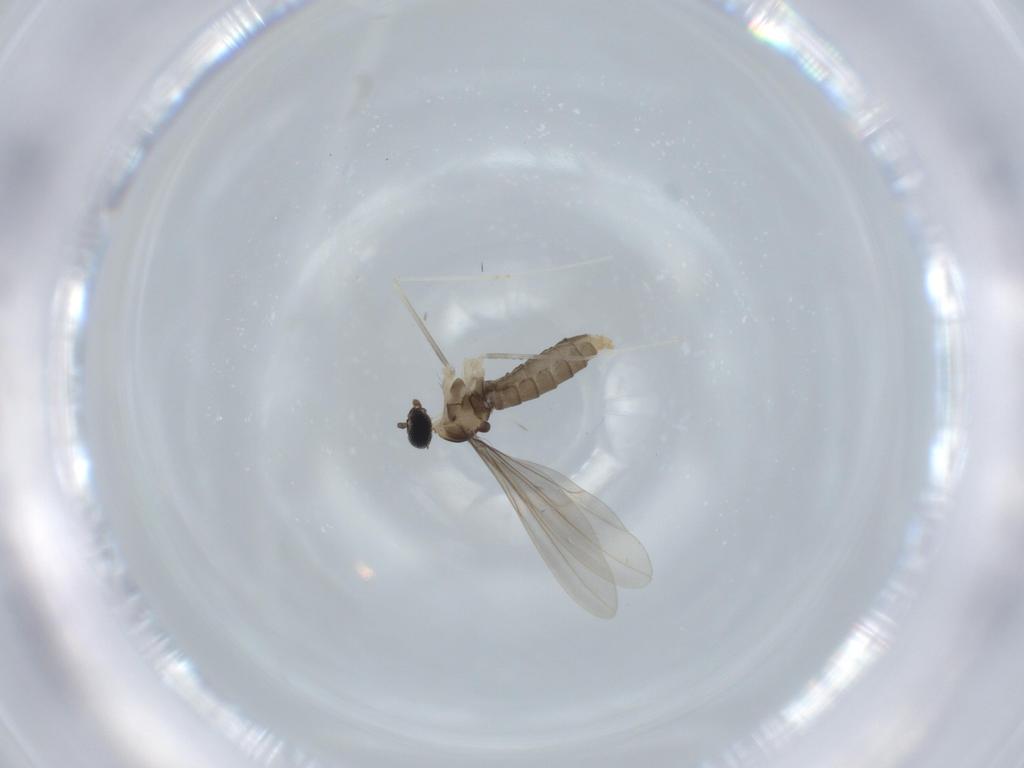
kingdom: Animalia
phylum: Arthropoda
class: Insecta
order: Diptera
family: Cecidomyiidae
